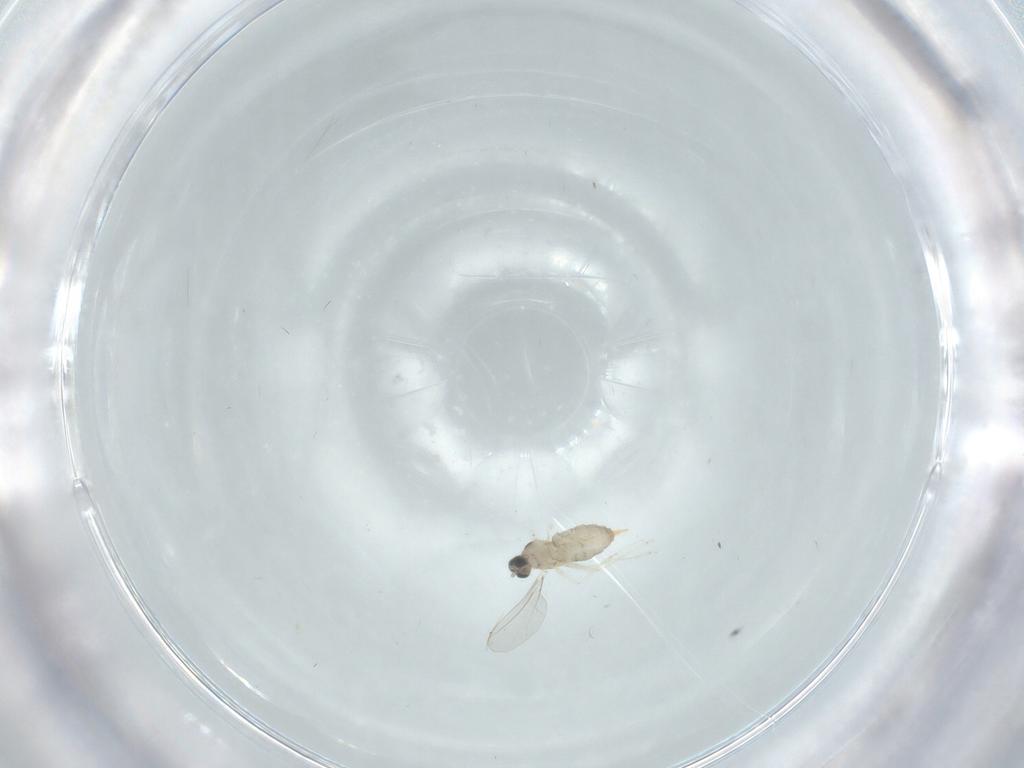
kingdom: Animalia
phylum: Arthropoda
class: Insecta
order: Diptera
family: Cecidomyiidae
